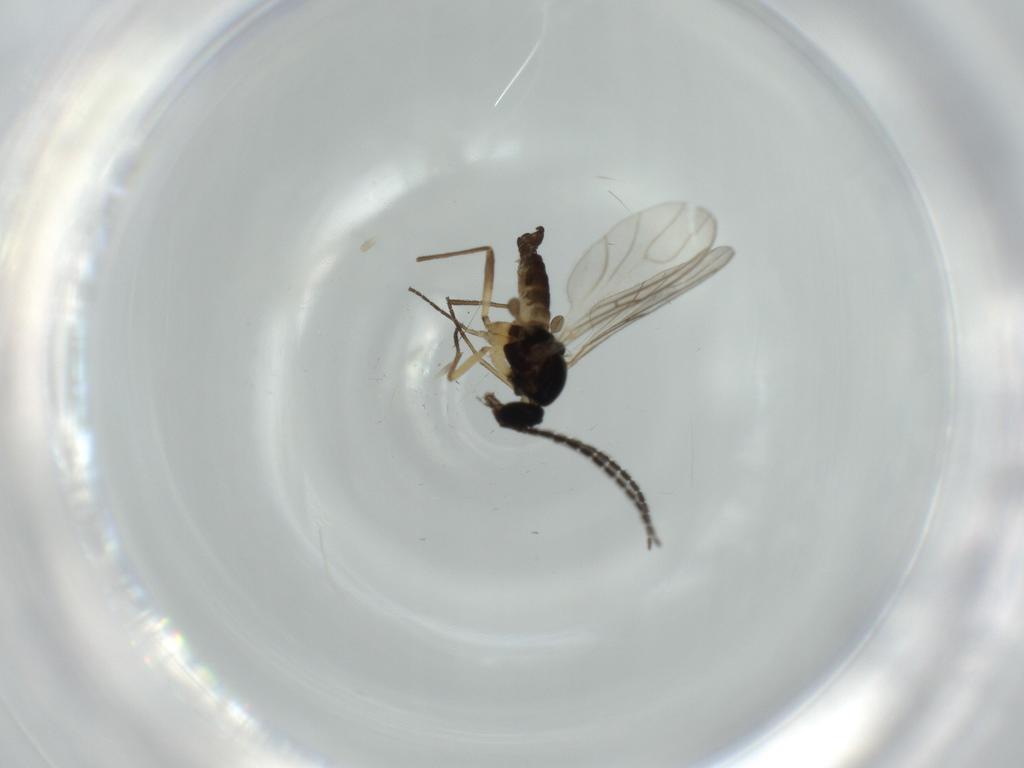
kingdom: Animalia
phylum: Arthropoda
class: Insecta
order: Diptera
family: Sciaridae
